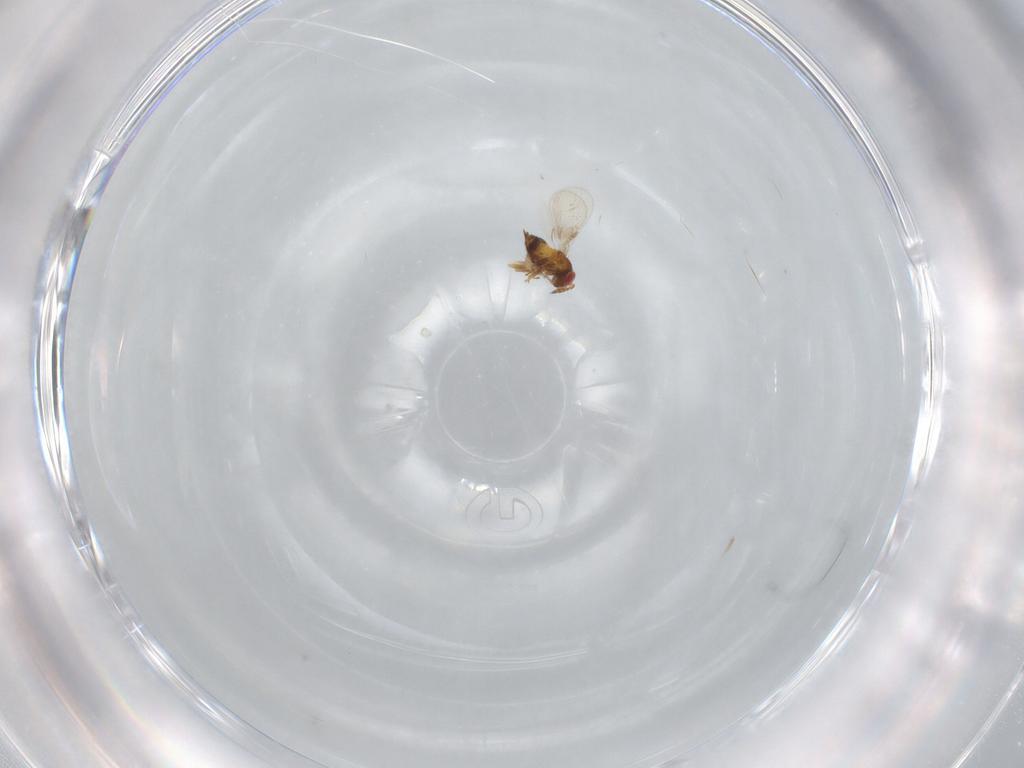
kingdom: Animalia
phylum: Arthropoda
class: Insecta
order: Hymenoptera
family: Trichogrammatidae
